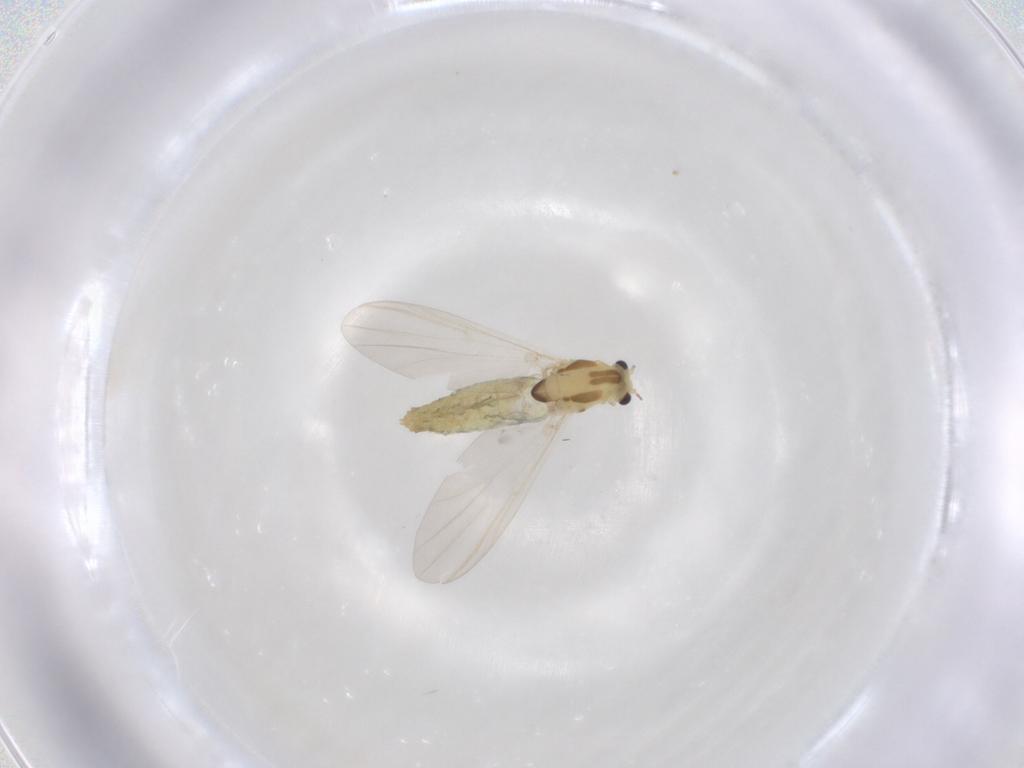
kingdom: Animalia
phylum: Arthropoda
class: Insecta
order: Diptera
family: Chironomidae
